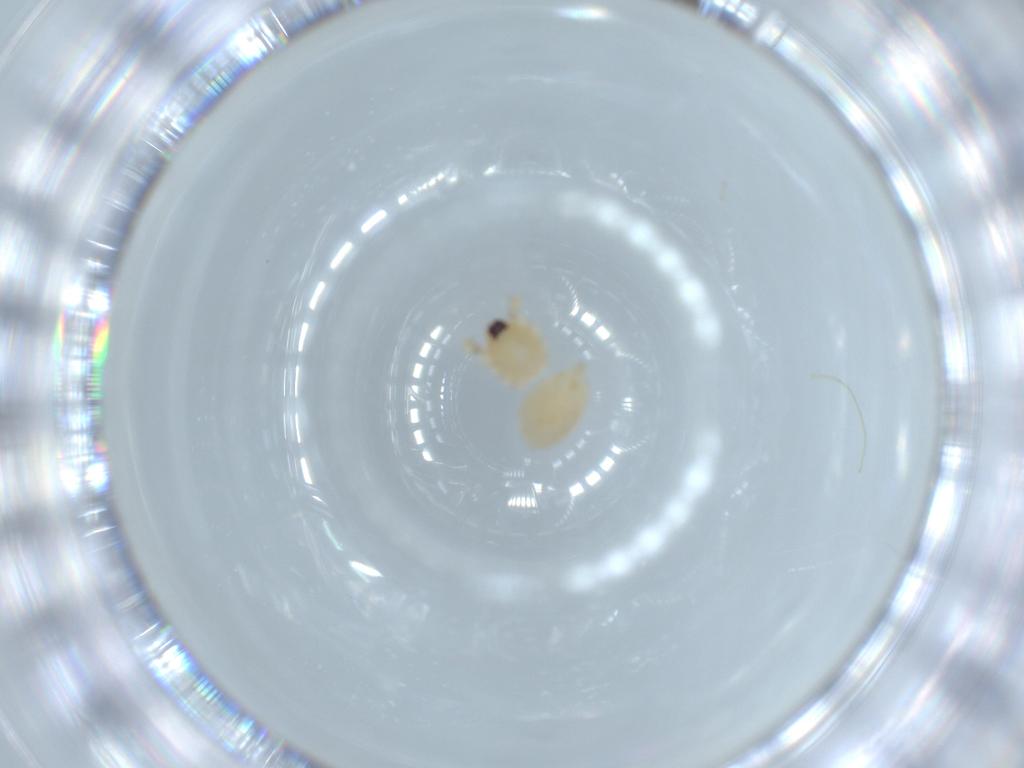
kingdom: Animalia
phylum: Arthropoda
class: Arachnida
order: Araneae
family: Oonopidae
